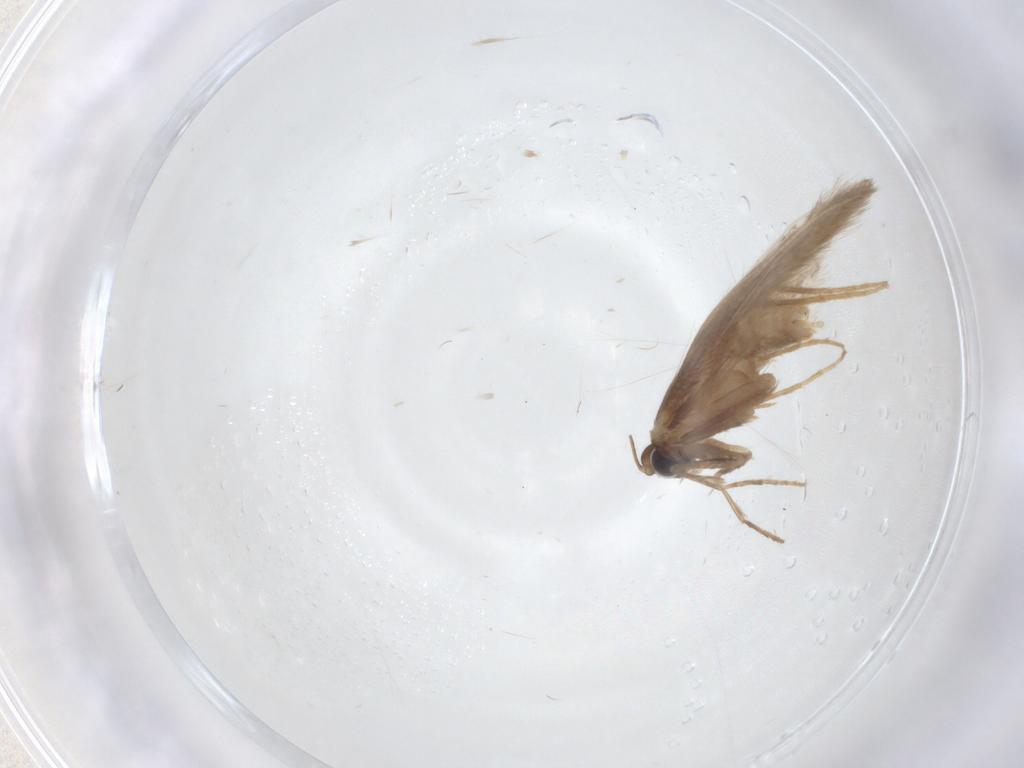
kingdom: Animalia
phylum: Arthropoda
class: Insecta
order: Lepidoptera
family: Tischeriidae
